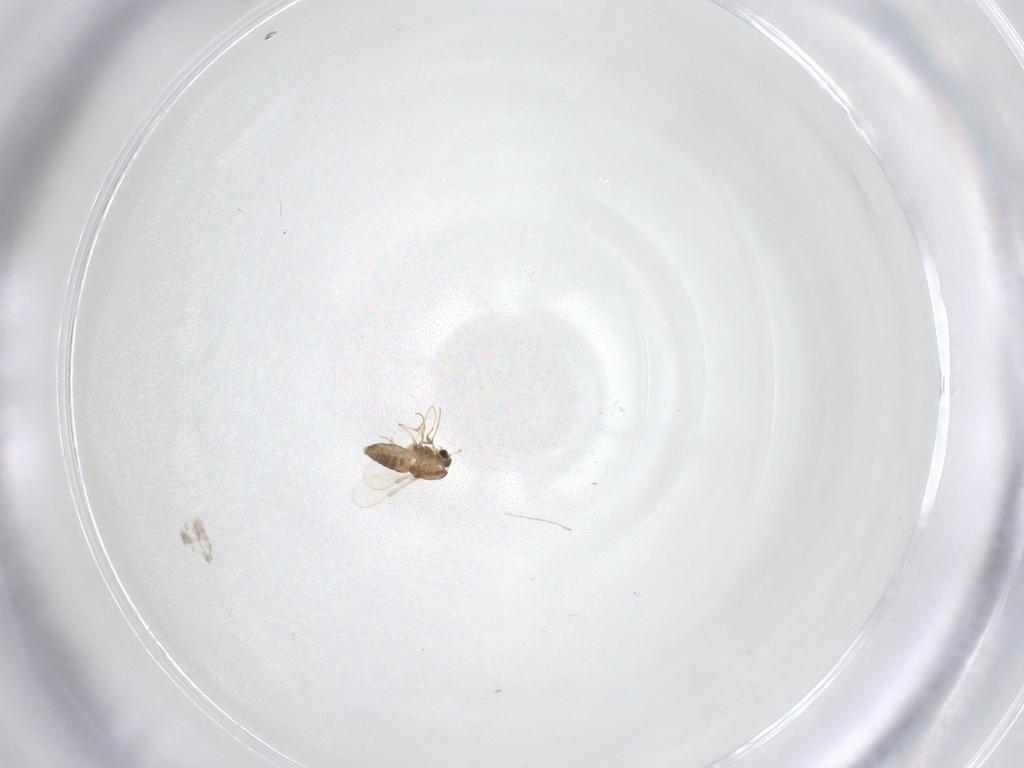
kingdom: Animalia
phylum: Arthropoda
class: Insecta
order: Diptera
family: Cecidomyiidae
